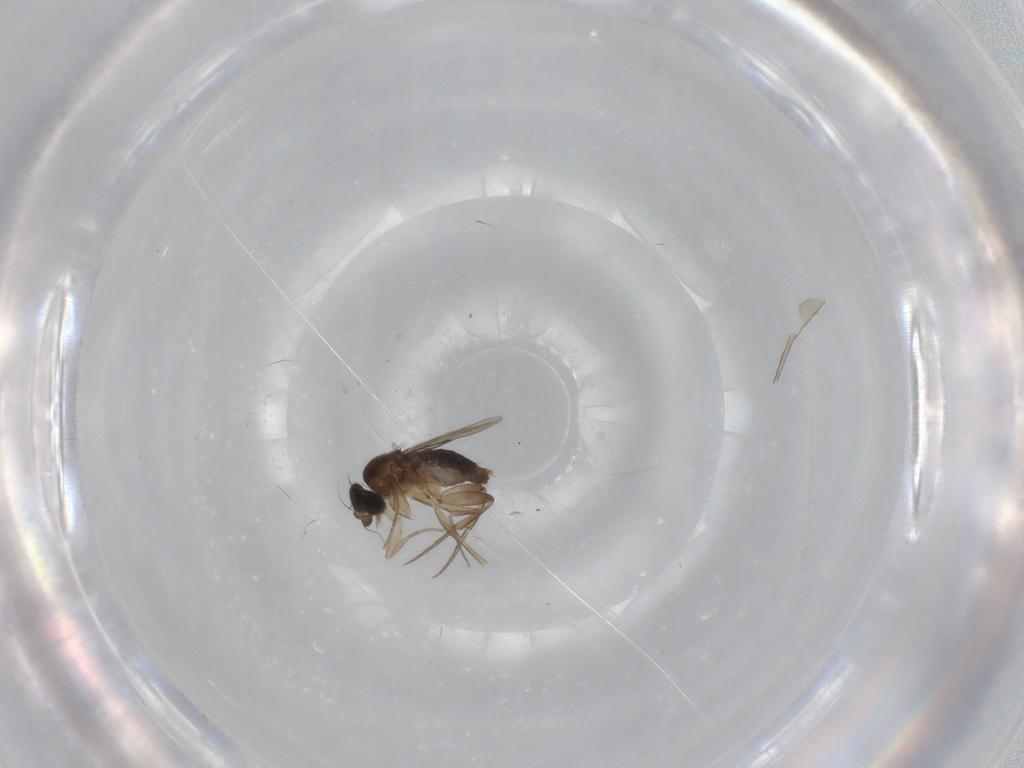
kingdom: Animalia
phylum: Arthropoda
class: Insecta
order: Diptera
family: Phoridae
